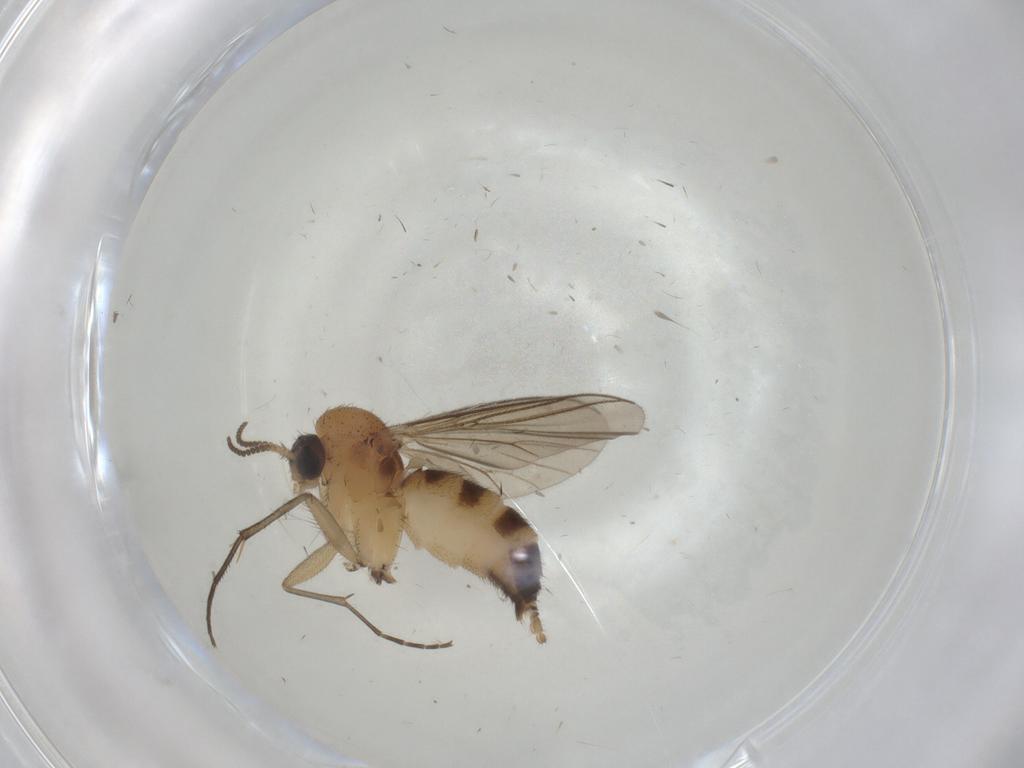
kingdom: Animalia
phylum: Arthropoda
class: Insecta
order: Diptera
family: Psychodidae
